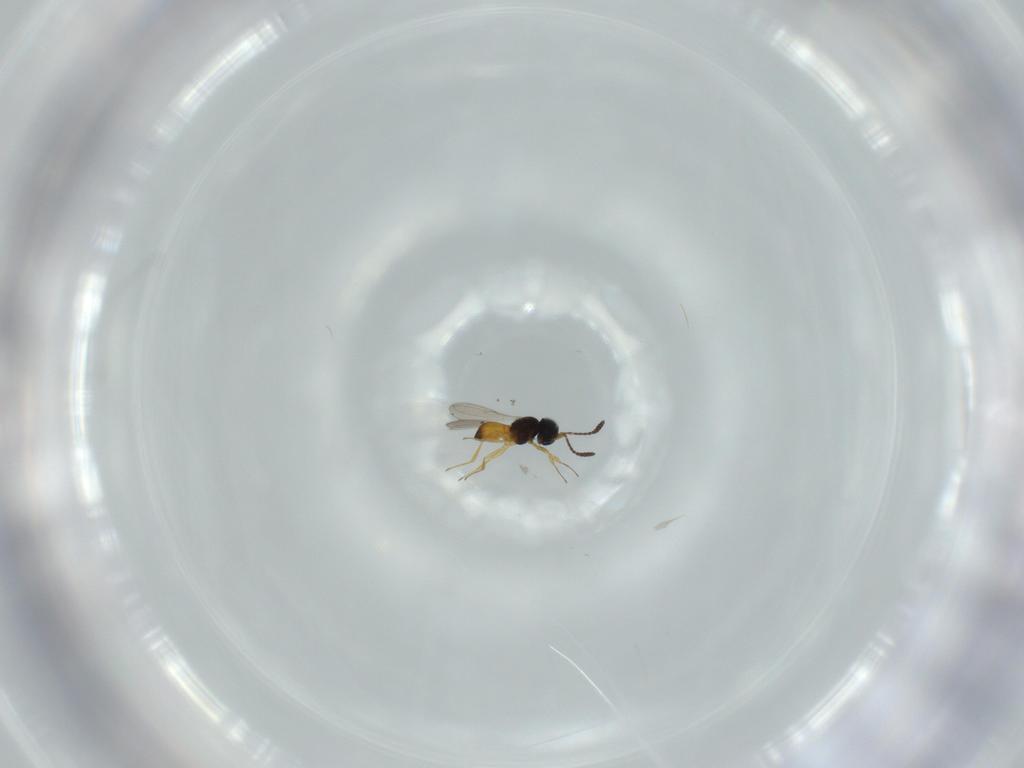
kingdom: Animalia
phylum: Arthropoda
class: Insecta
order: Hymenoptera
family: Scelionidae
